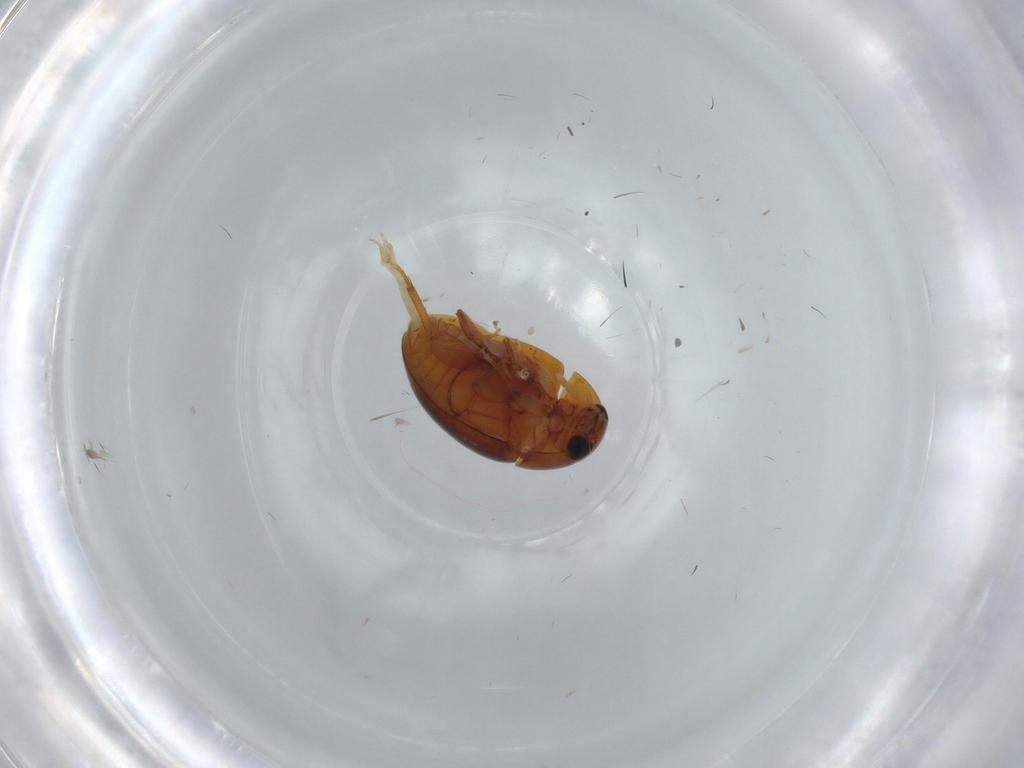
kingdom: Animalia
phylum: Arthropoda
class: Insecta
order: Coleoptera
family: Phalacridae
